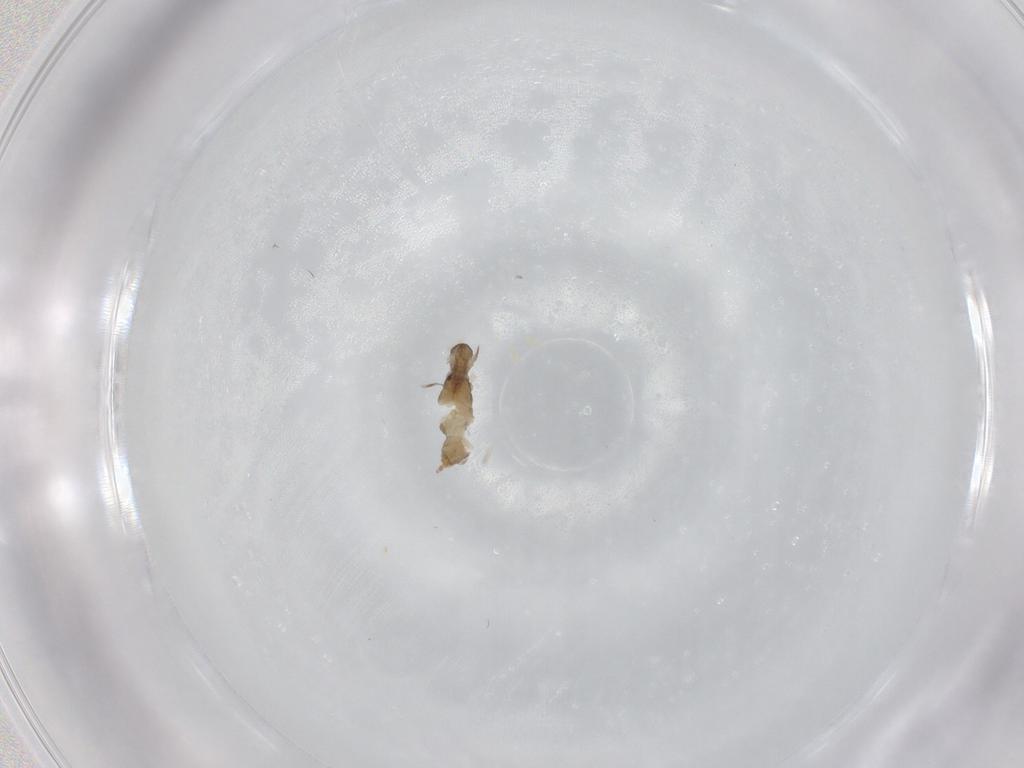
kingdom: Animalia
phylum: Arthropoda
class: Insecta
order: Diptera
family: Cecidomyiidae
